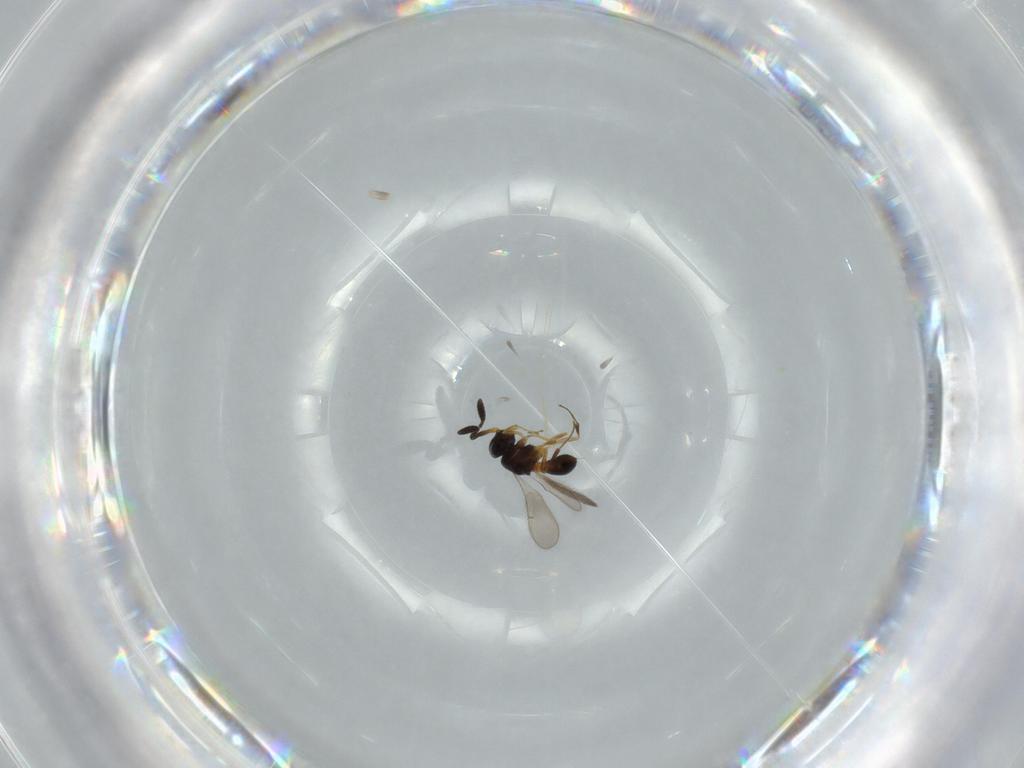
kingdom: Animalia
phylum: Arthropoda
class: Insecta
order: Hymenoptera
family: Scelionidae
